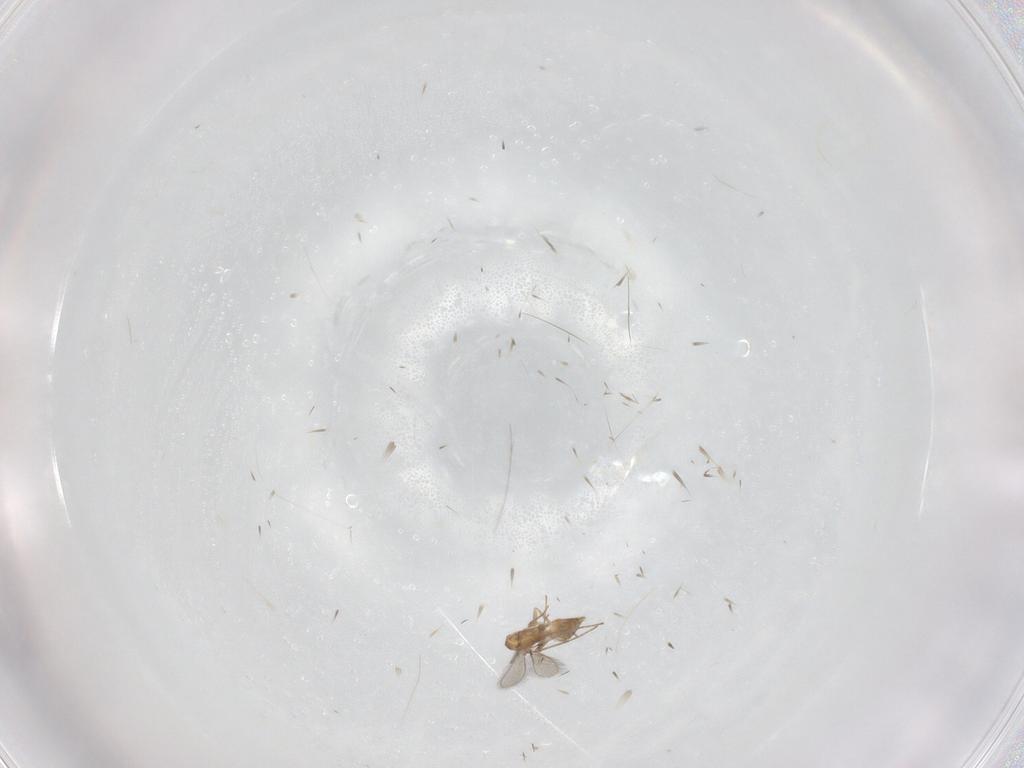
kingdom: Animalia
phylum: Arthropoda
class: Insecta
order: Hymenoptera
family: Mymaridae
